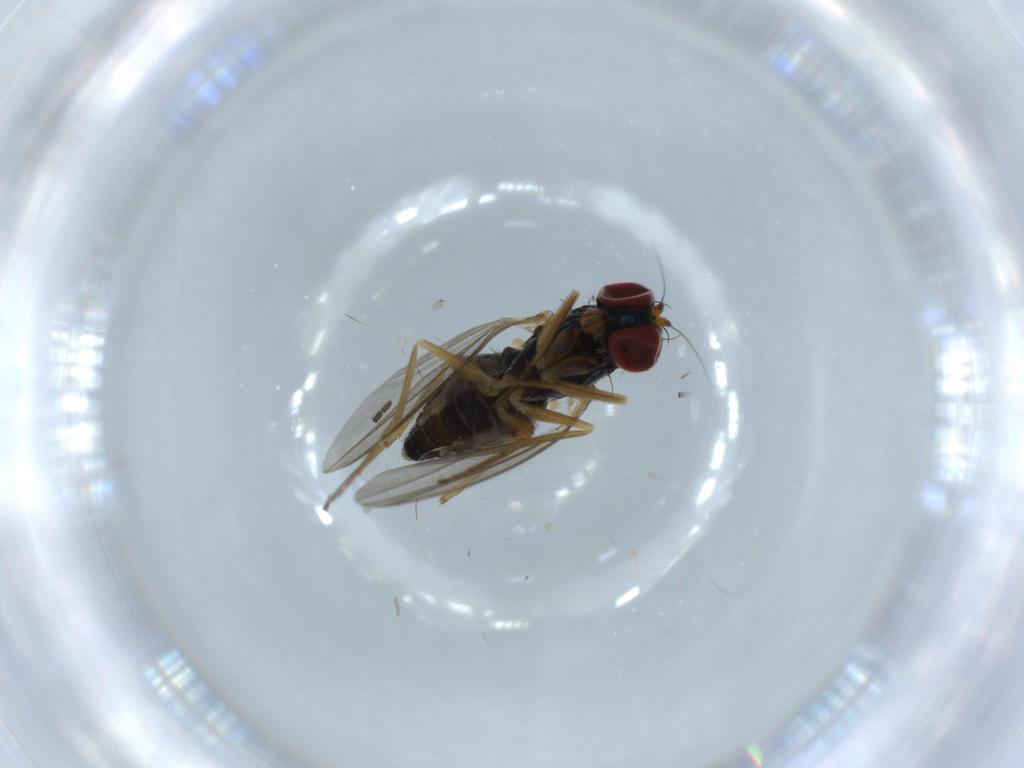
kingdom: Animalia
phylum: Arthropoda
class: Insecta
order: Diptera
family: Dolichopodidae
